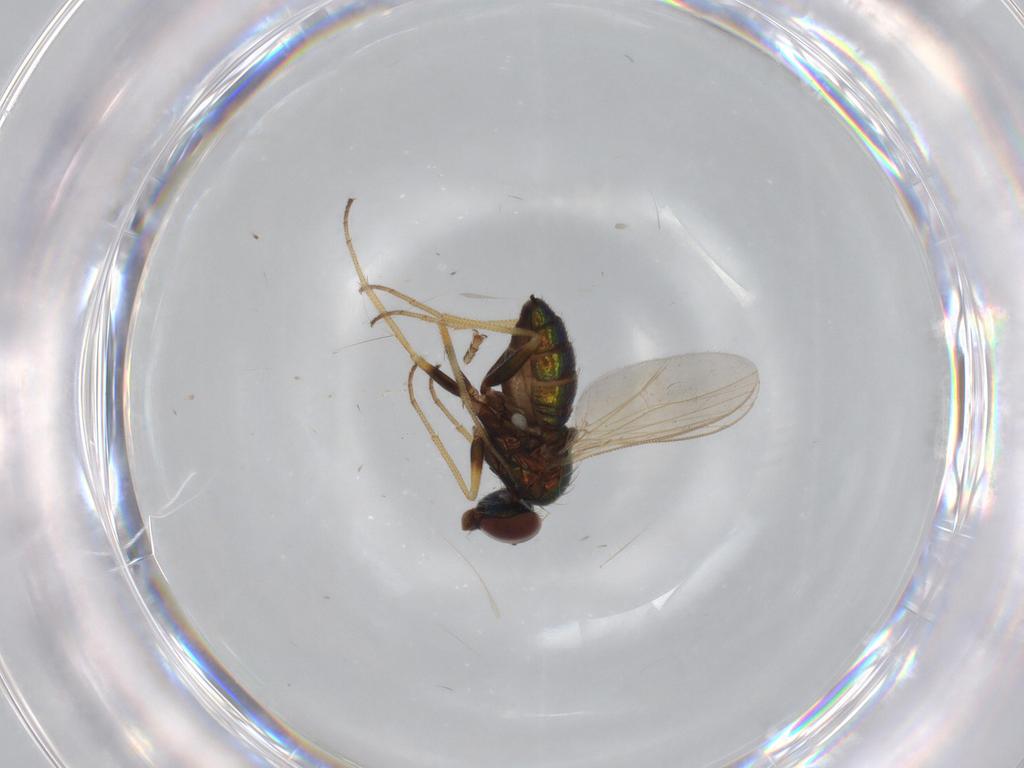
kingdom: Animalia
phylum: Arthropoda
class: Insecta
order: Diptera
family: Dolichopodidae
